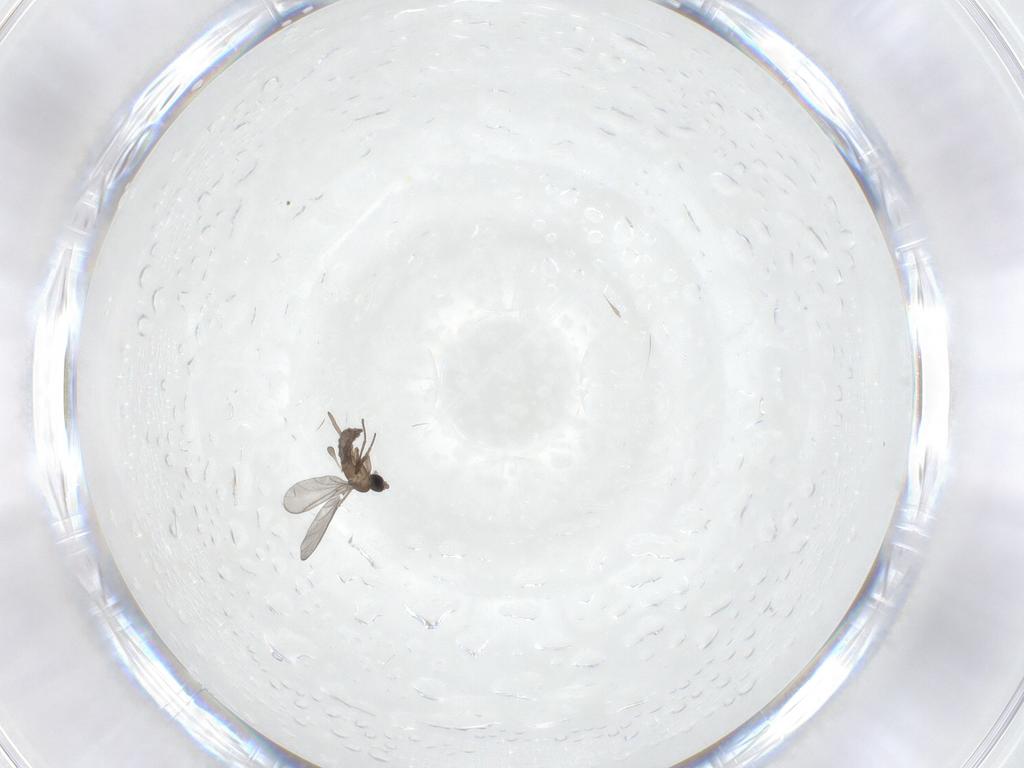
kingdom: Animalia
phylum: Arthropoda
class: Insecta
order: Diptera
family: Sciaridae
